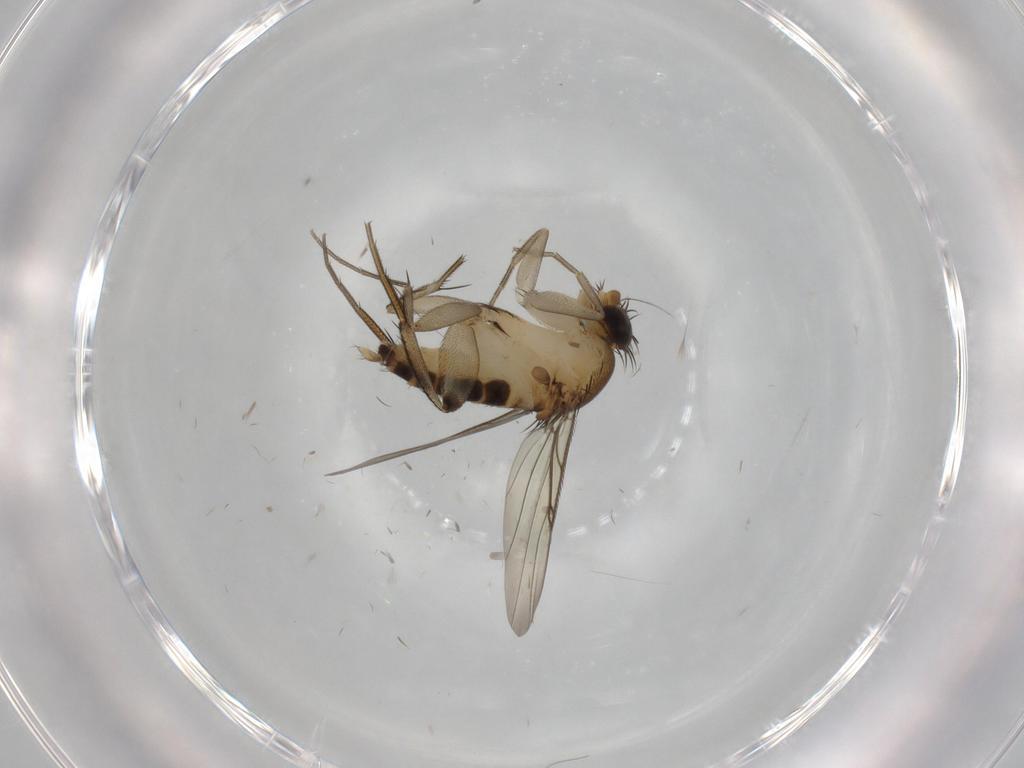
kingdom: Animalia
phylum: Arthropoda
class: Insecta
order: Diptera
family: Phoridae
